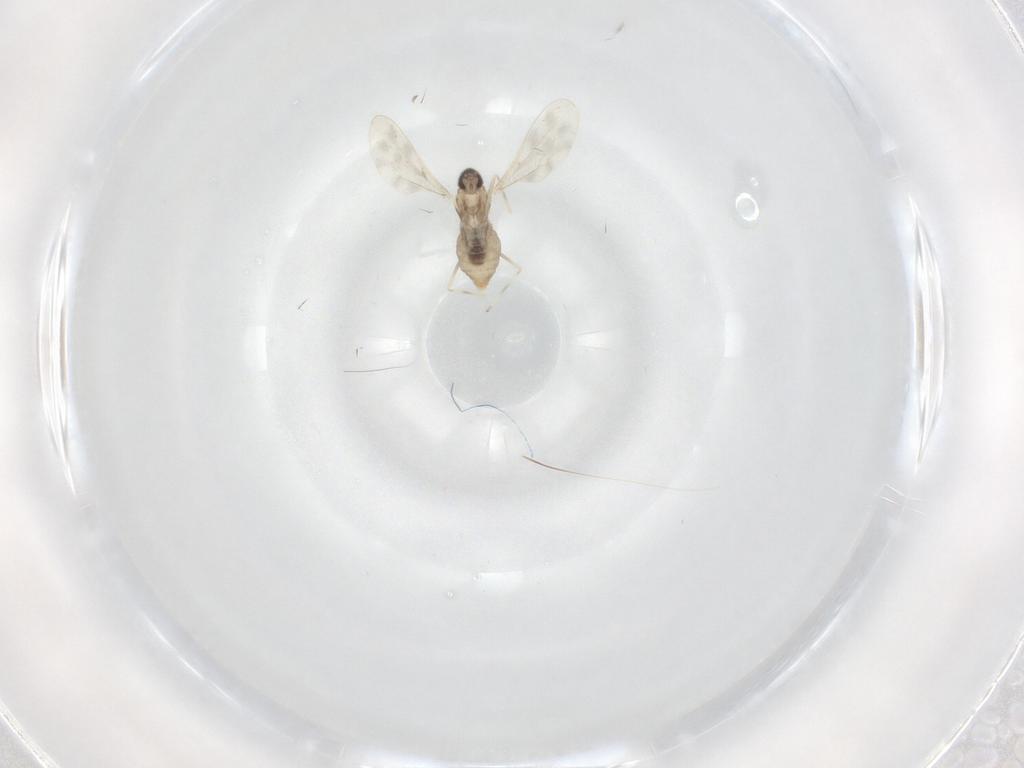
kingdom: Animalia
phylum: Arthropoda
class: Insecta
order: Diptera
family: Cecidomyiidae
